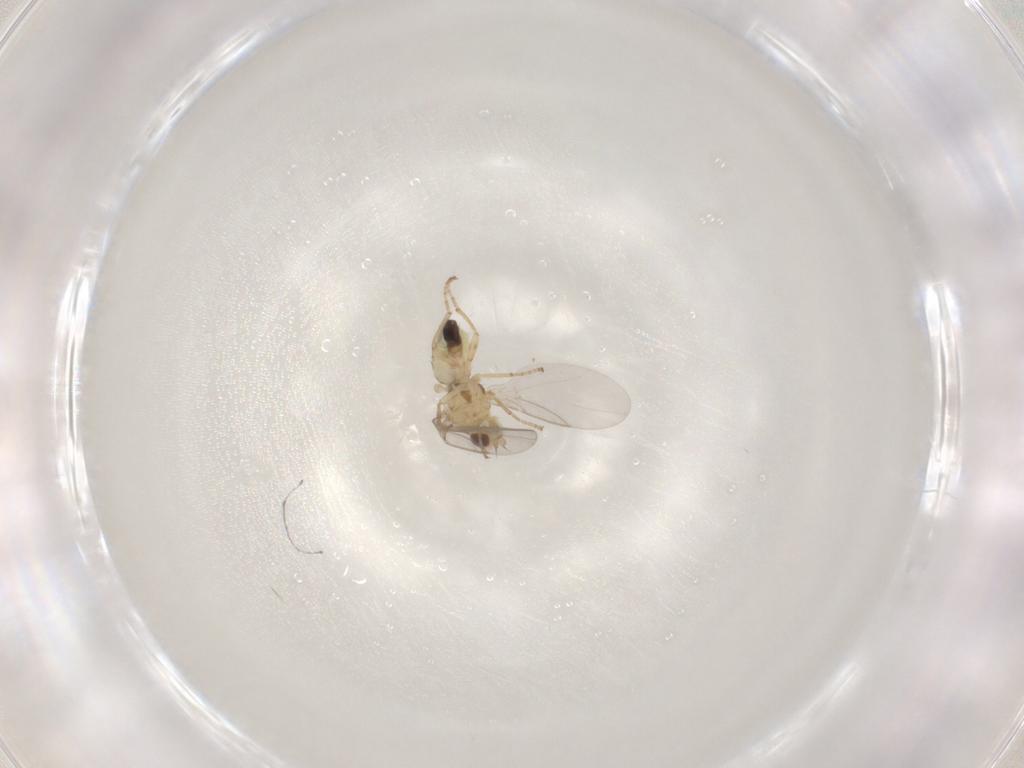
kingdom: Animalia
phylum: Arthropoda
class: Insecta
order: Diptera
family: Agromyzidae
